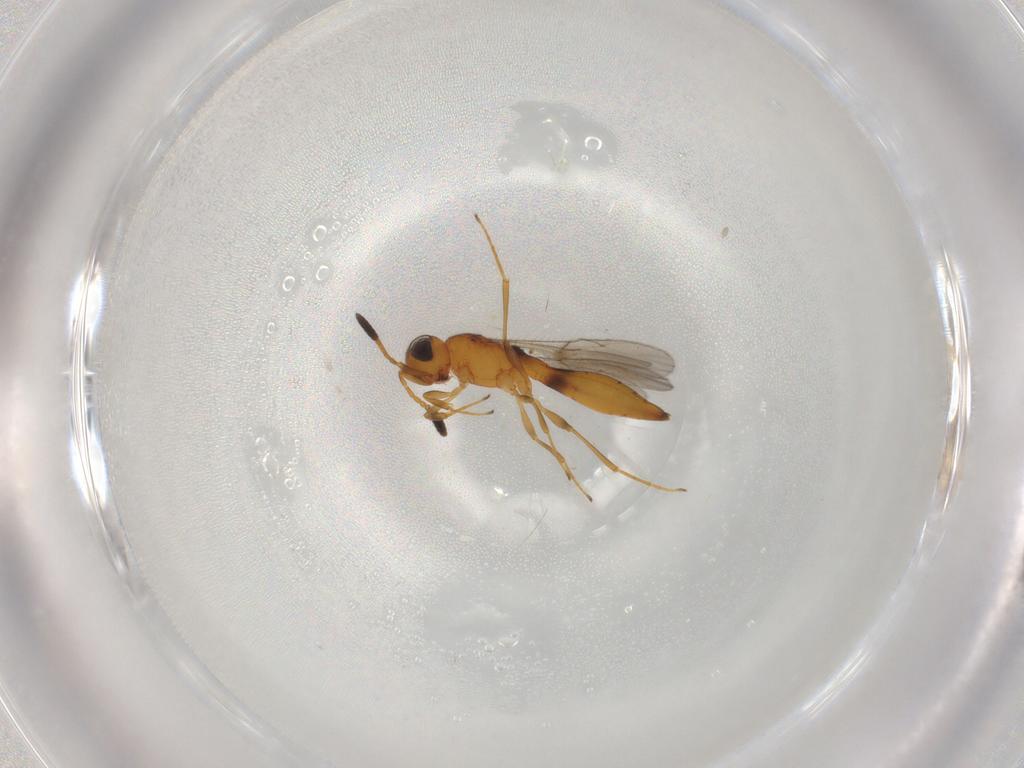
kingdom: Animalia
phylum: Arthropoda
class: Insecta
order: Hymenoptera
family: Scelionidae
